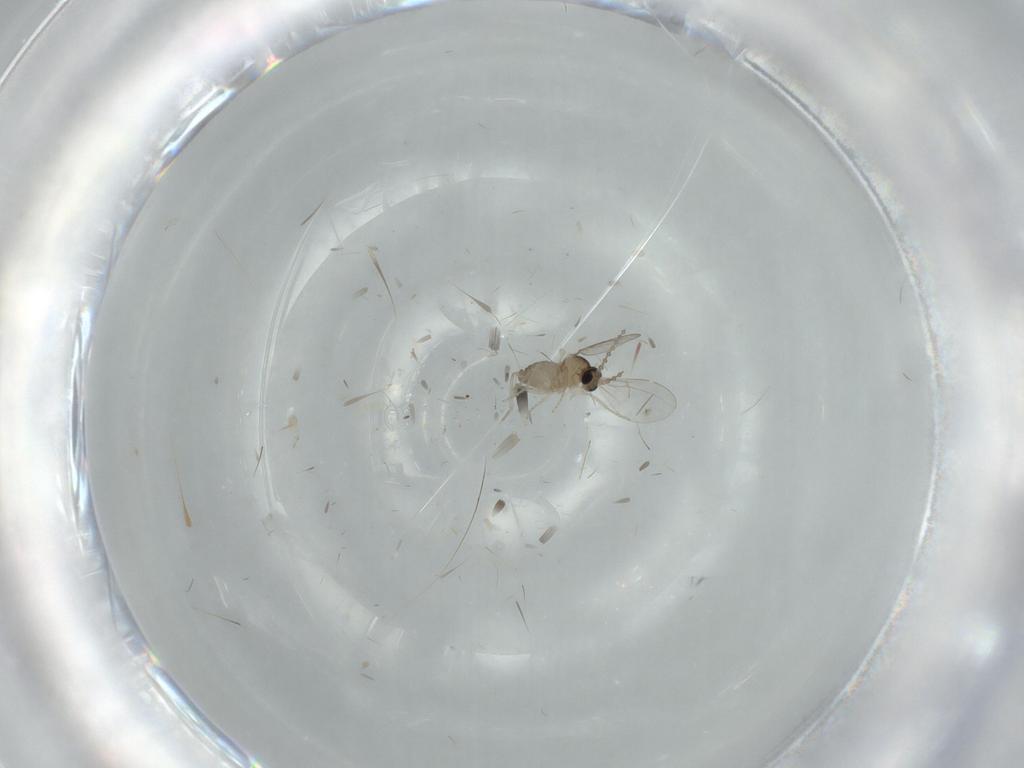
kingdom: Animalia
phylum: Arthropoda
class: Insecta
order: Diptera
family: Cecidomyiidae
